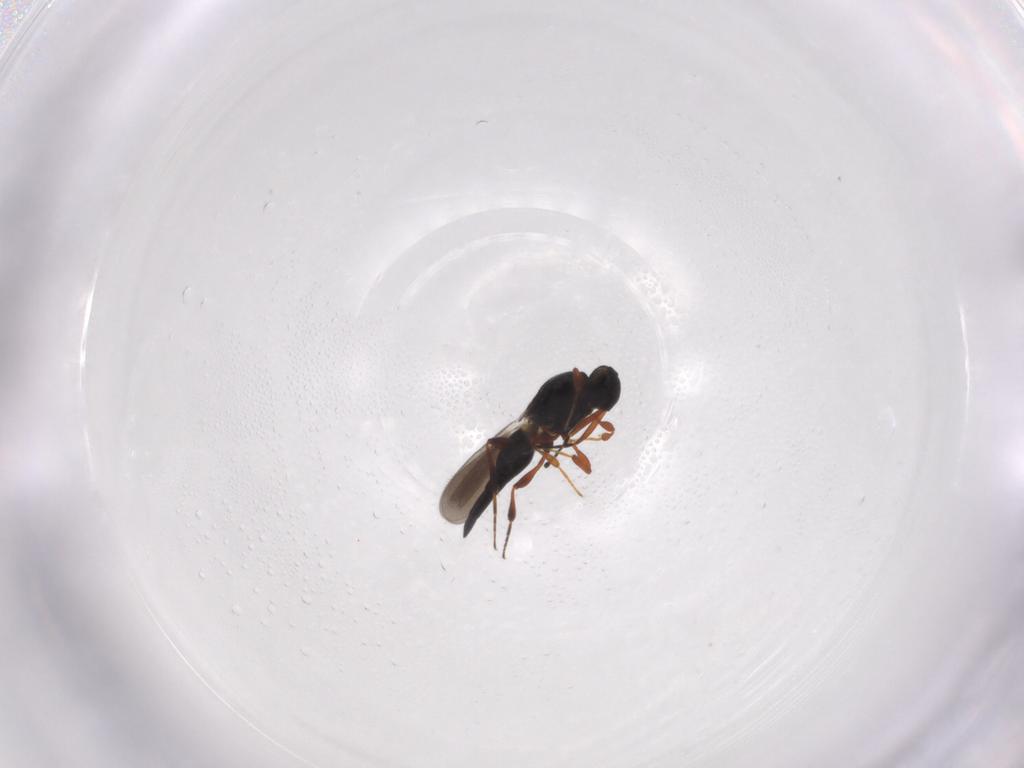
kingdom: Animalia
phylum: Arthropoda
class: Insecta
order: Hymenoptera
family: Platygastridae
